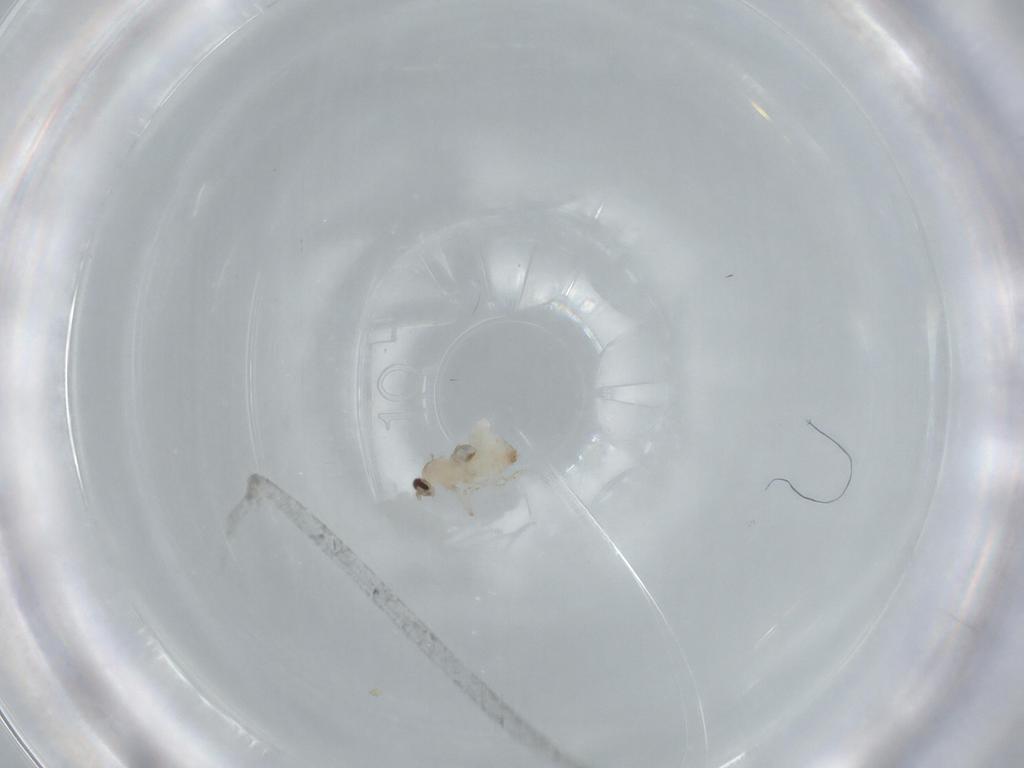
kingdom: Animalia
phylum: Arthropoda
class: Insecta
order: Diptera
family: Cecidomyiidae
